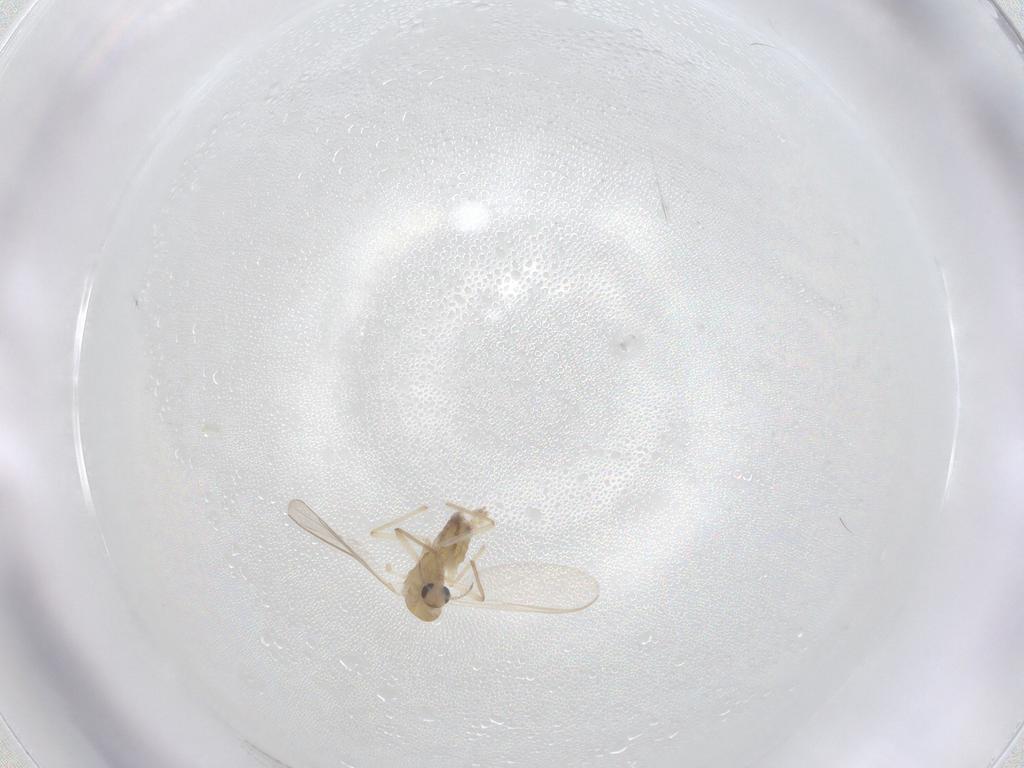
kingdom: Animalia
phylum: Arthropoda
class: Insecta
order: Diptera
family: Chironomidae
